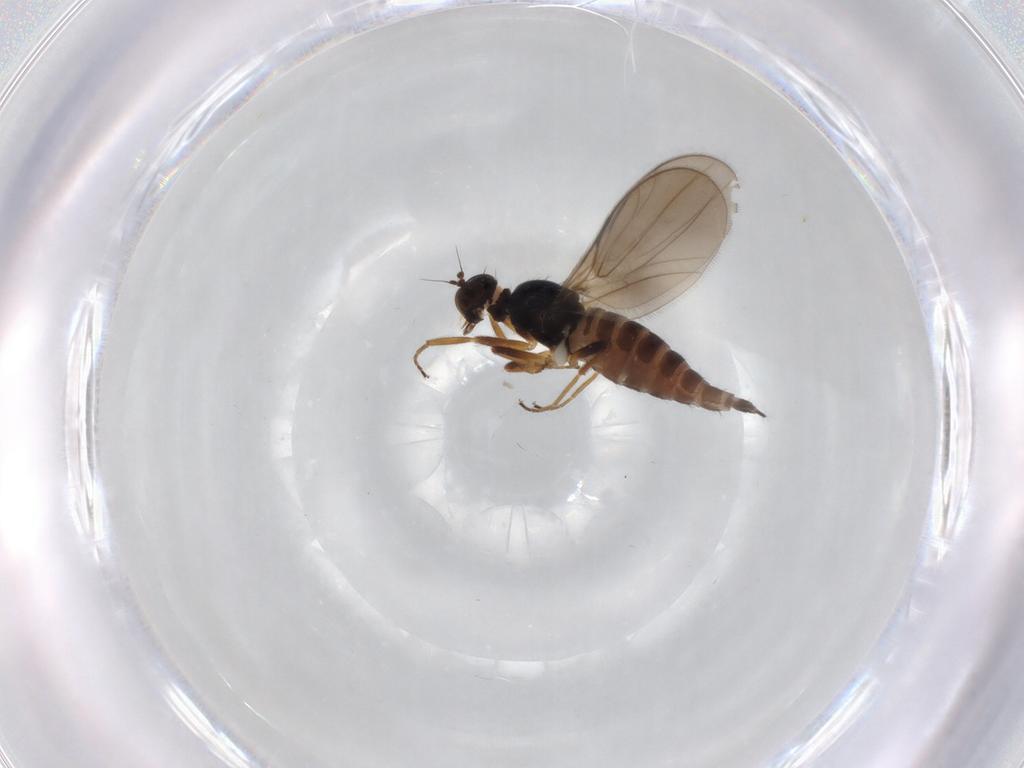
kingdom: Animalia
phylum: Arthropoda
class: Insecta
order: Diptera
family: Hybotidae
